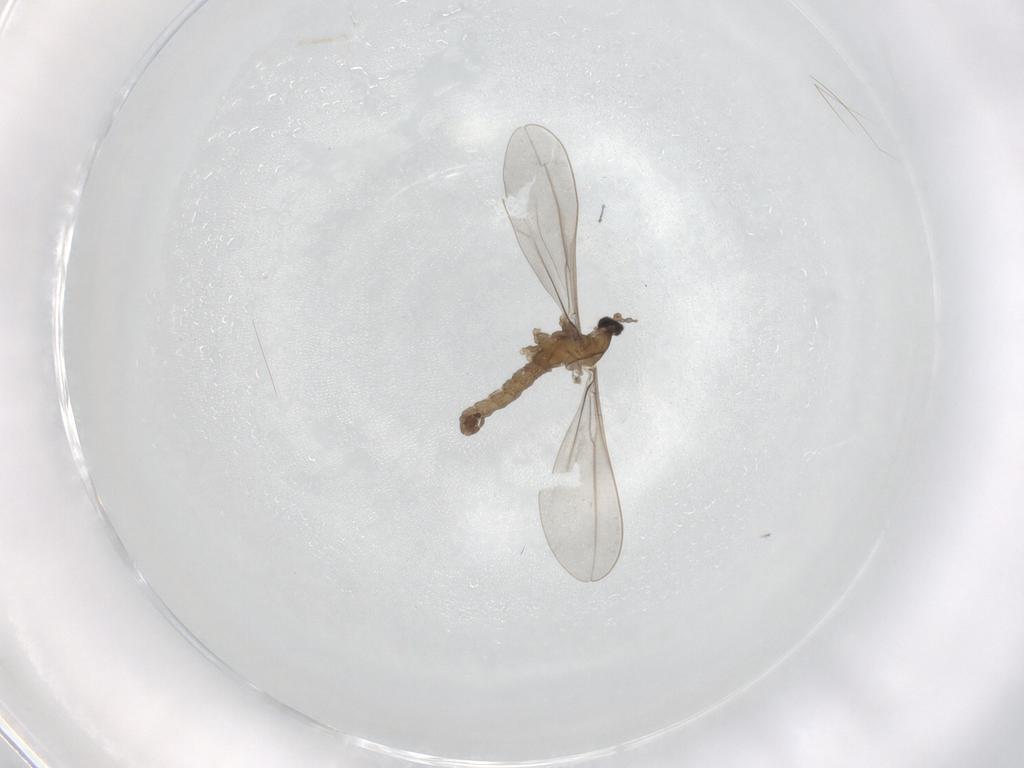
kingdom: Animalia
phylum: Arthropoda
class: Insecta
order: Diptera
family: Cecidomyiidae
